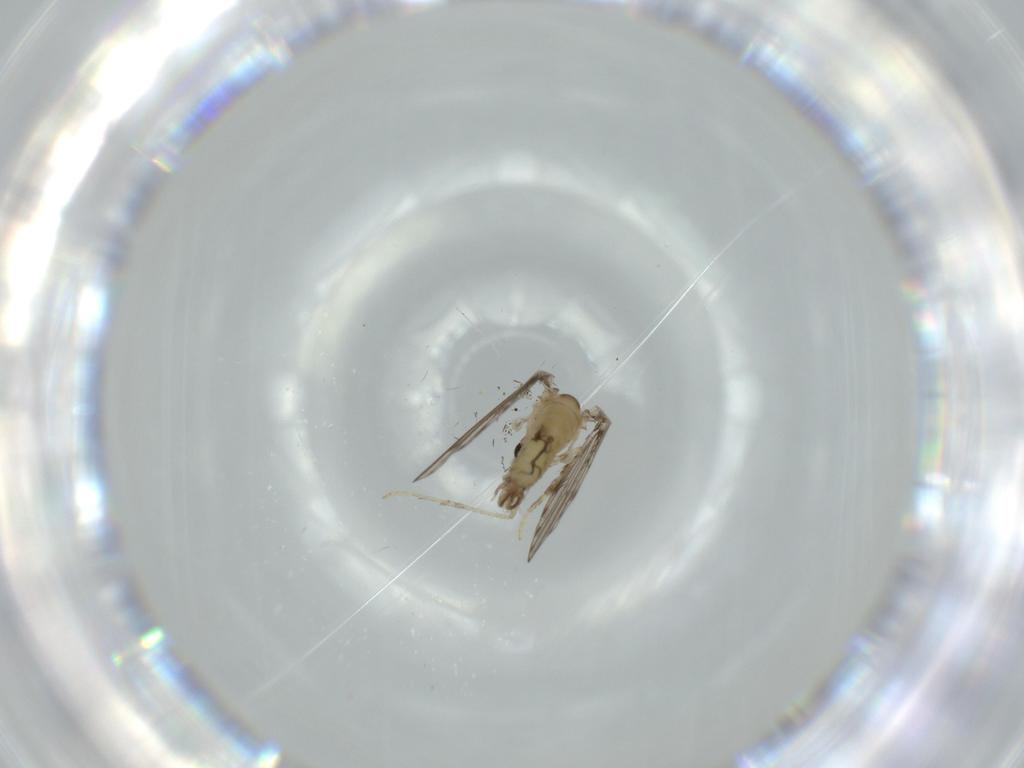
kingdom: Animalia
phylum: Arthropoda
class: Insecta
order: Diptera
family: Sciaridae
